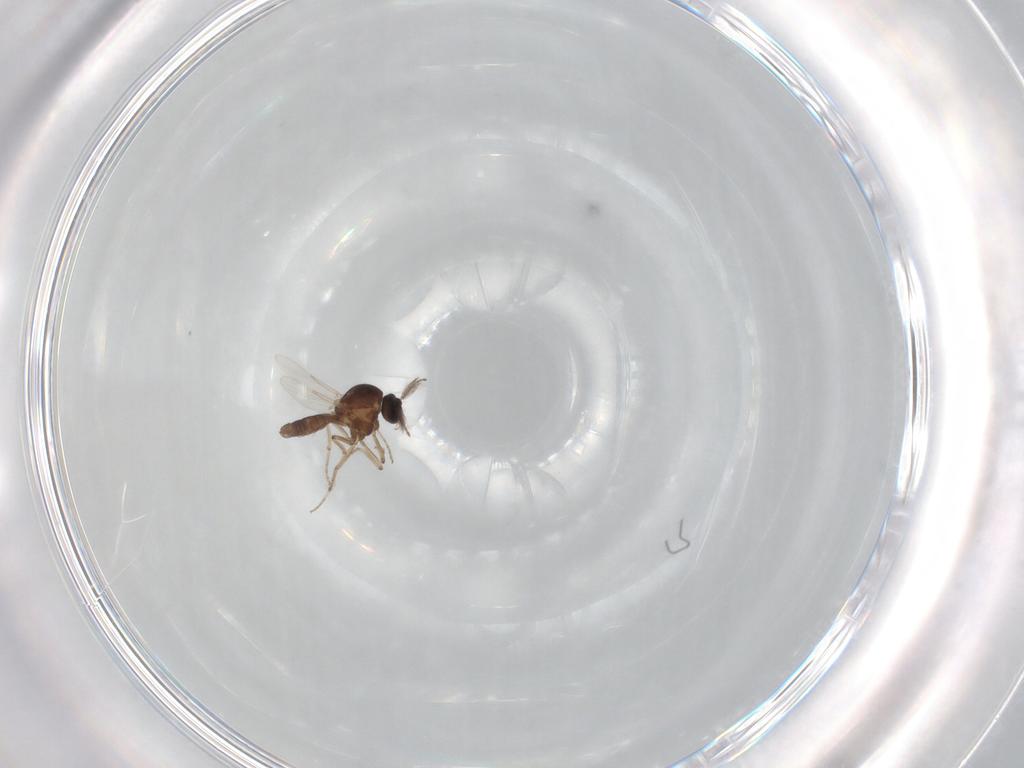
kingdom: Animalia
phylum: Arthropoda
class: Insecta
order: Diptera
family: Ceratopogonidae
